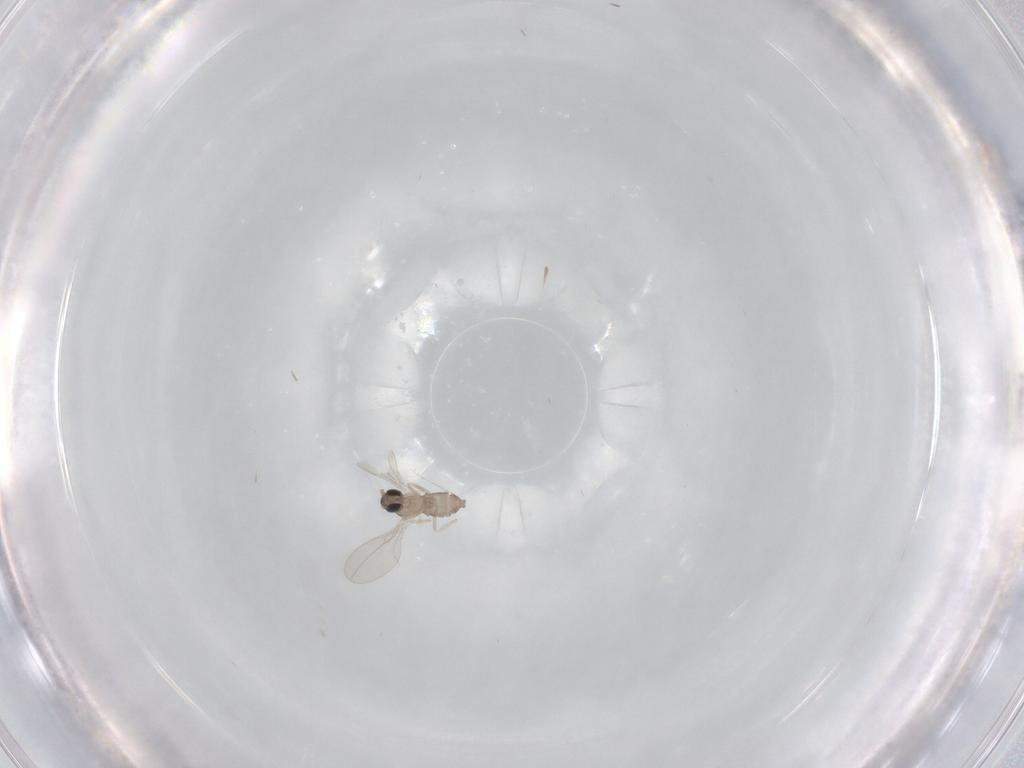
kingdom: Animalia
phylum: Arthropoda
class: Insecta
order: Diptera
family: Cecidomyiidae
